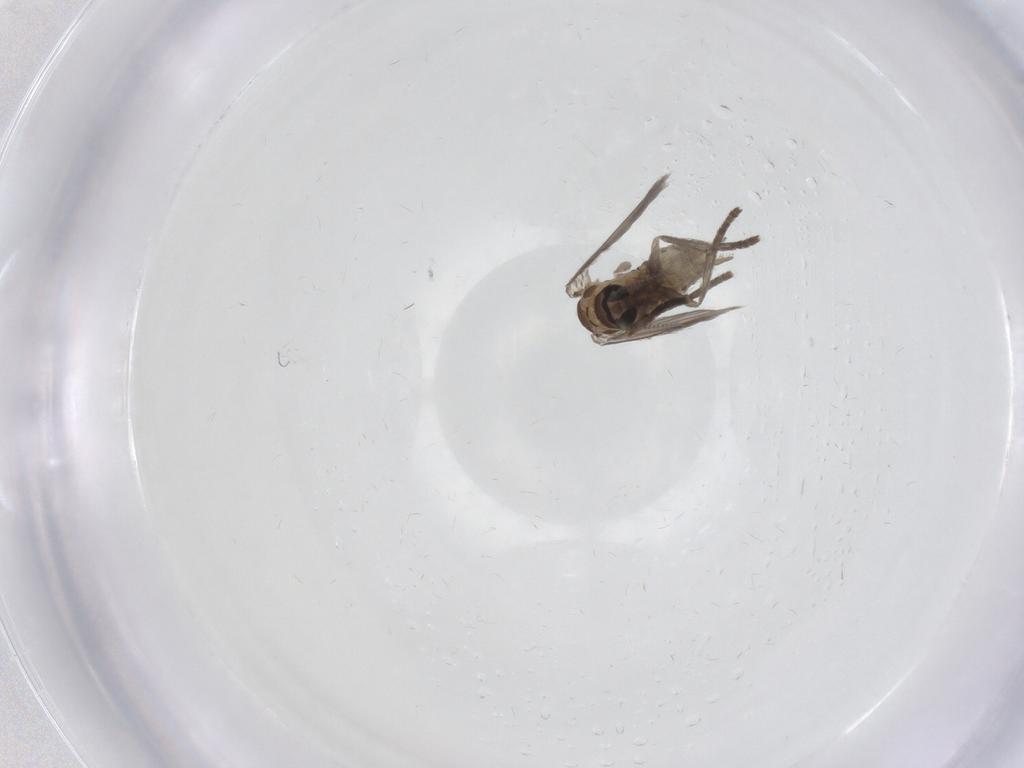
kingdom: Animalia
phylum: Arthropoda
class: Insecta
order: Diptera
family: Psychodidae
